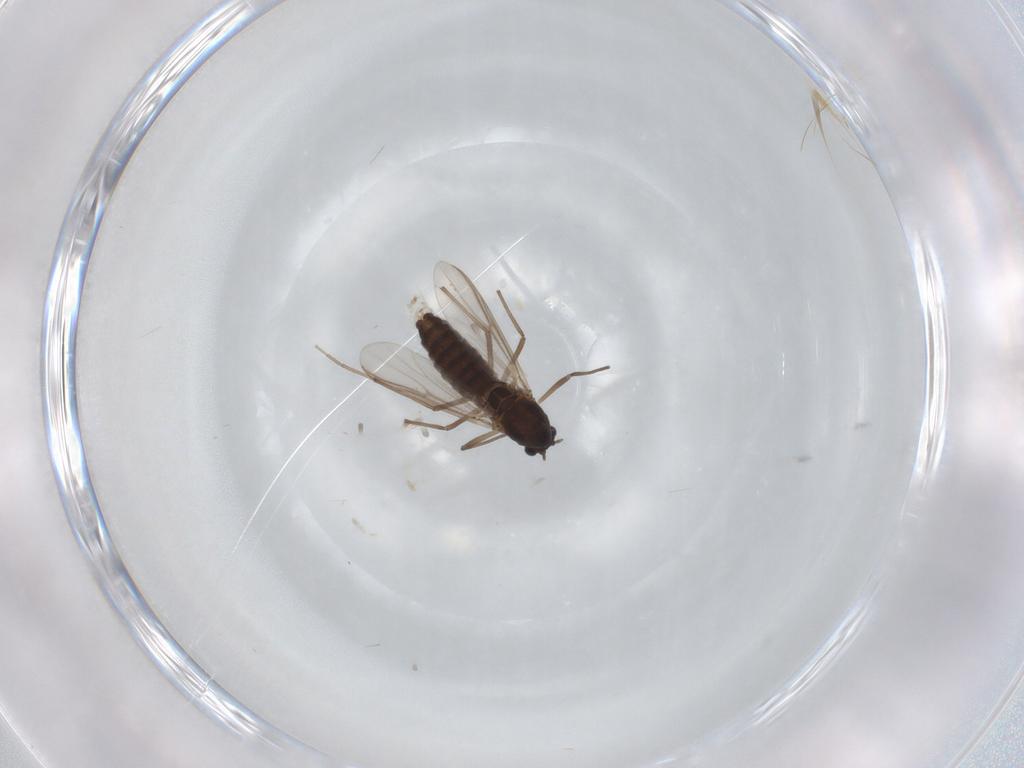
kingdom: Animalia
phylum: Arthropoda
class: Insecta
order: Diptera
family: Chironomidae
